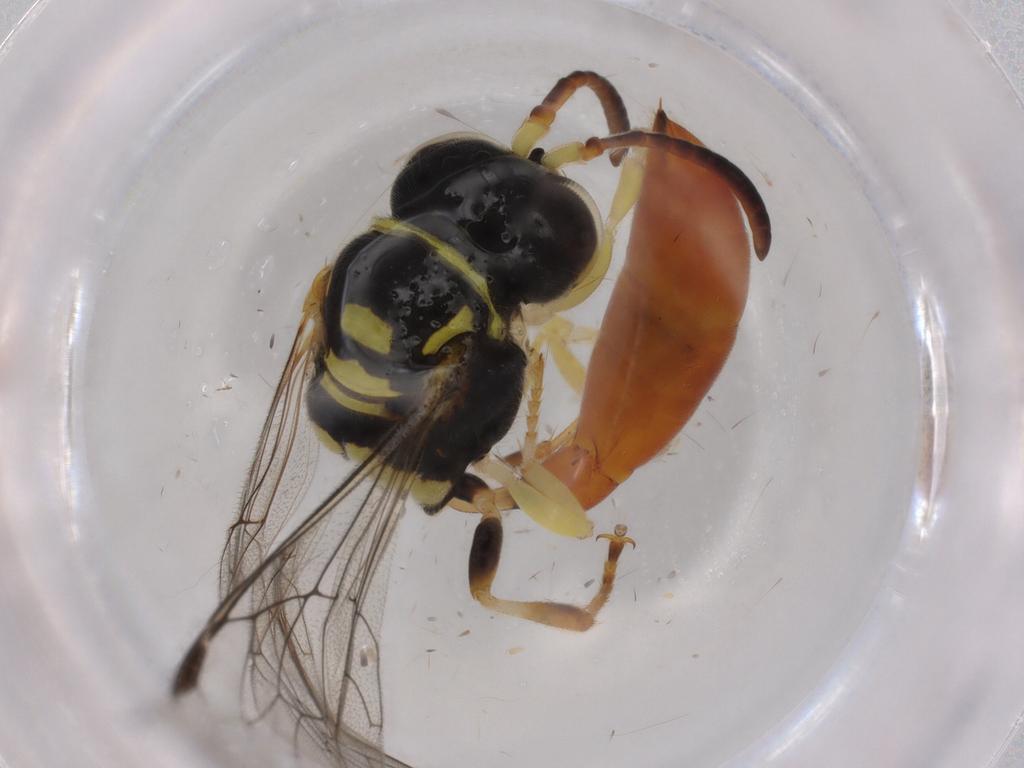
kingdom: Animalia
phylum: Arthropoda
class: Insecta
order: Hymenoptera
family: Crabronidae
